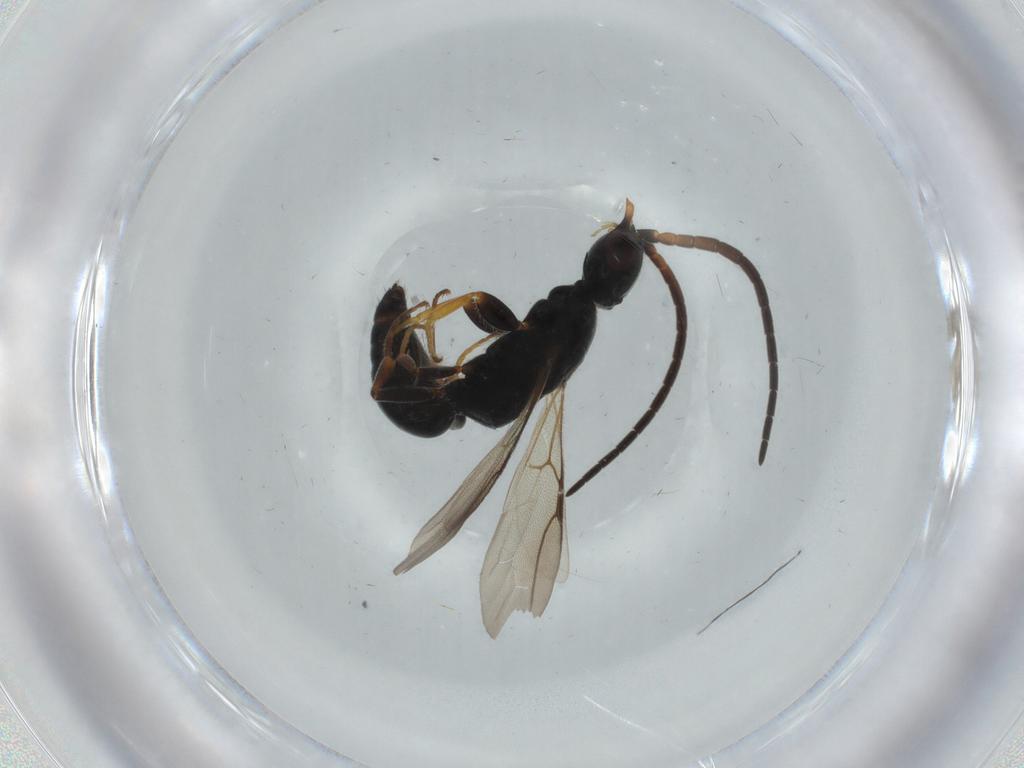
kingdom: Animalia
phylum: Arthropoda
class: Insecta
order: Hymenoptera
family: Bethylidae
